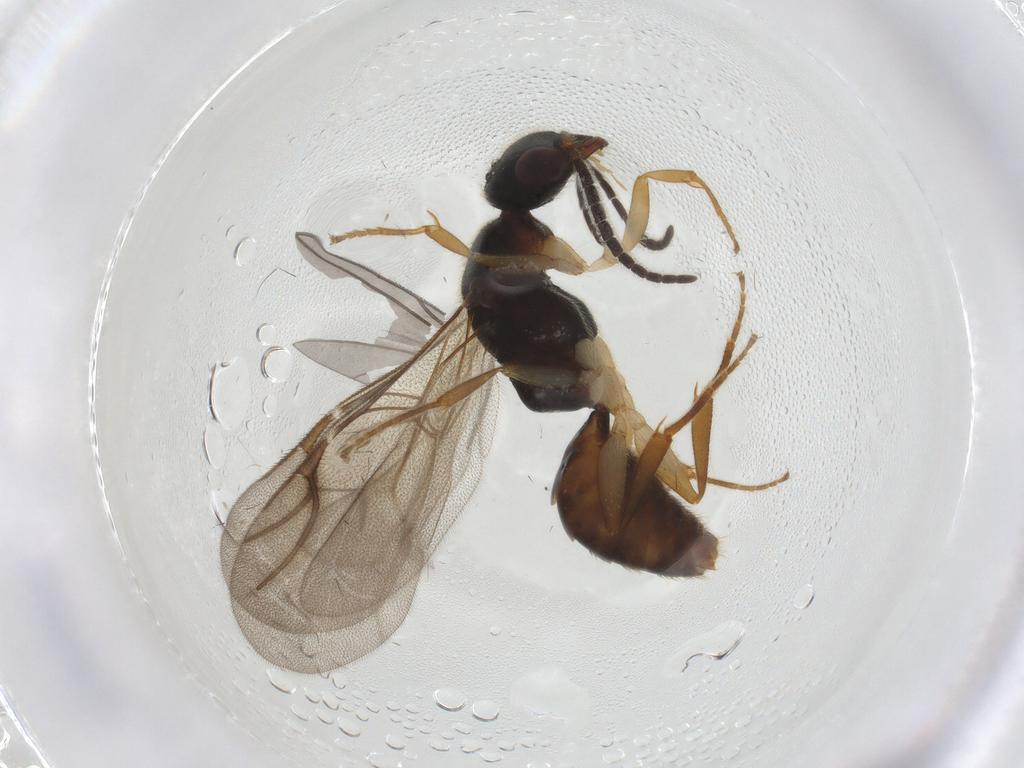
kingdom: Animalia
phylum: Arthropoda
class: Insecta
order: Hymenoptera
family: Bethylidae
